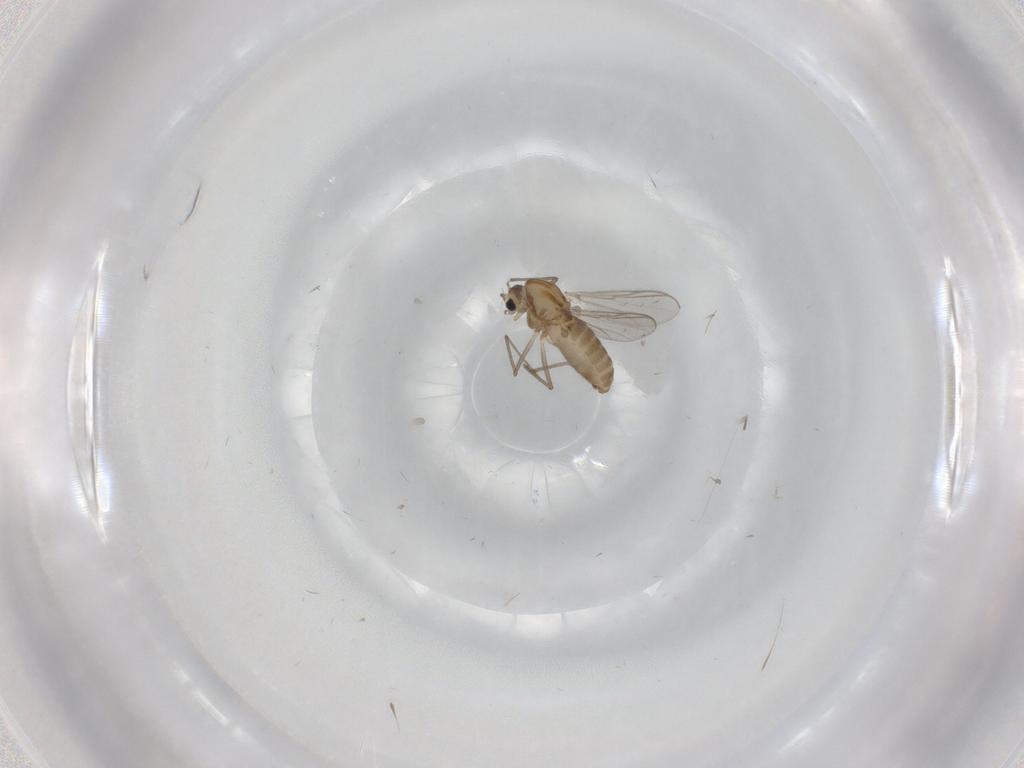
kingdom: Animalia
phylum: Arthropoda
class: Insecta
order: Diptera
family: Chironomidae
